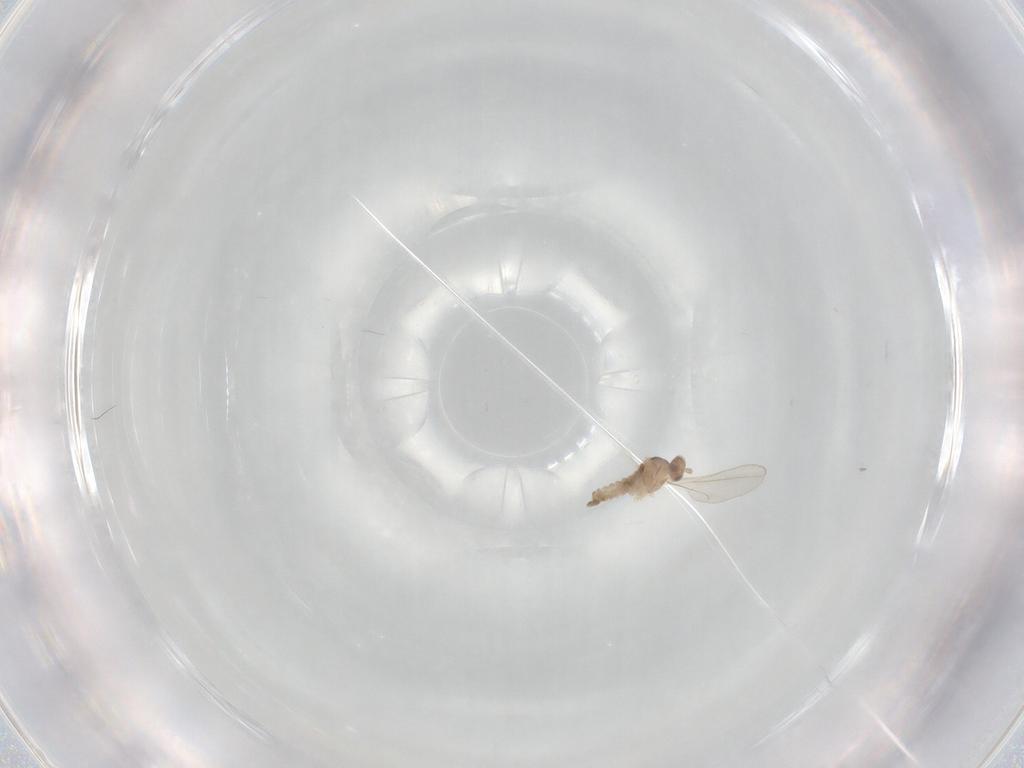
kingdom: Animalia
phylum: Arthropoda
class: Insecta
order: Diptera
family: Cecidomyiidae
